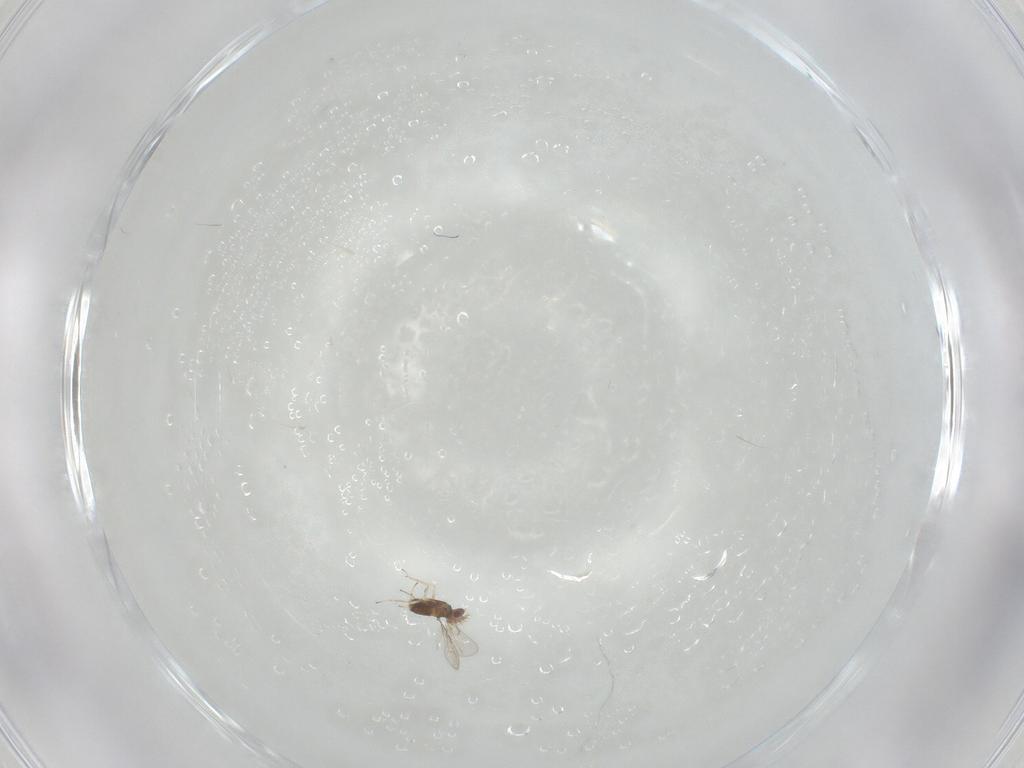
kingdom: Animalia
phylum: Arthropoda
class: Insecta
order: Hymenoptera
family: Trichogrammatidae
